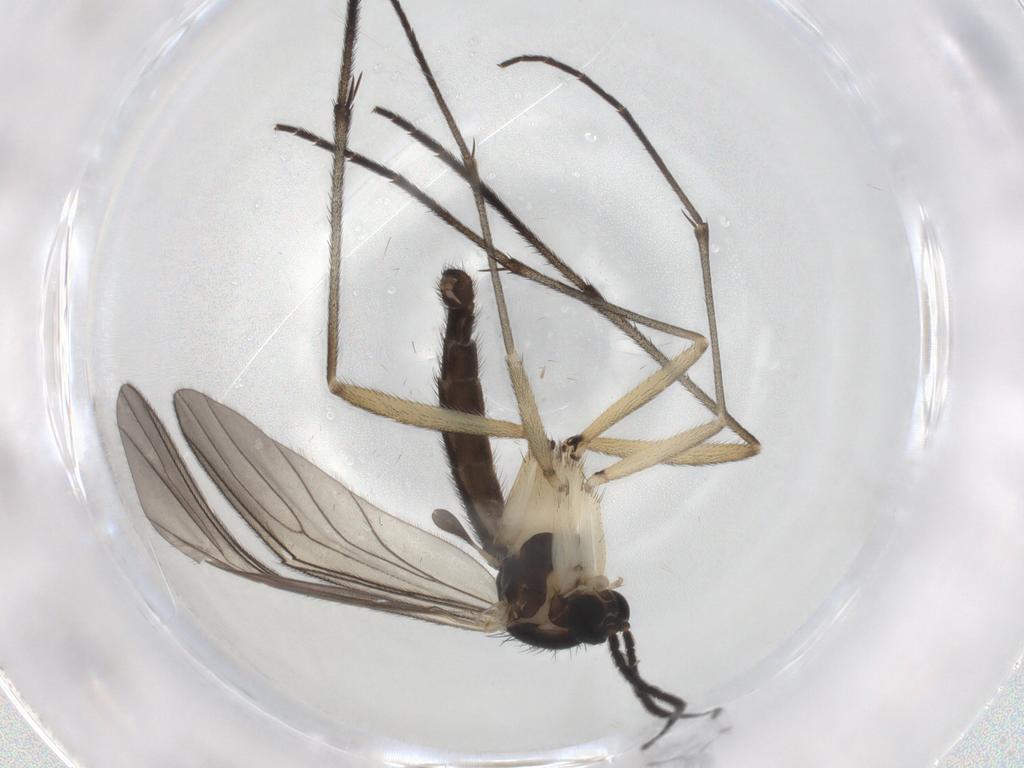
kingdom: Animalia
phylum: Arthropoda
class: Insecta
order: Diptera
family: Sciaridae
